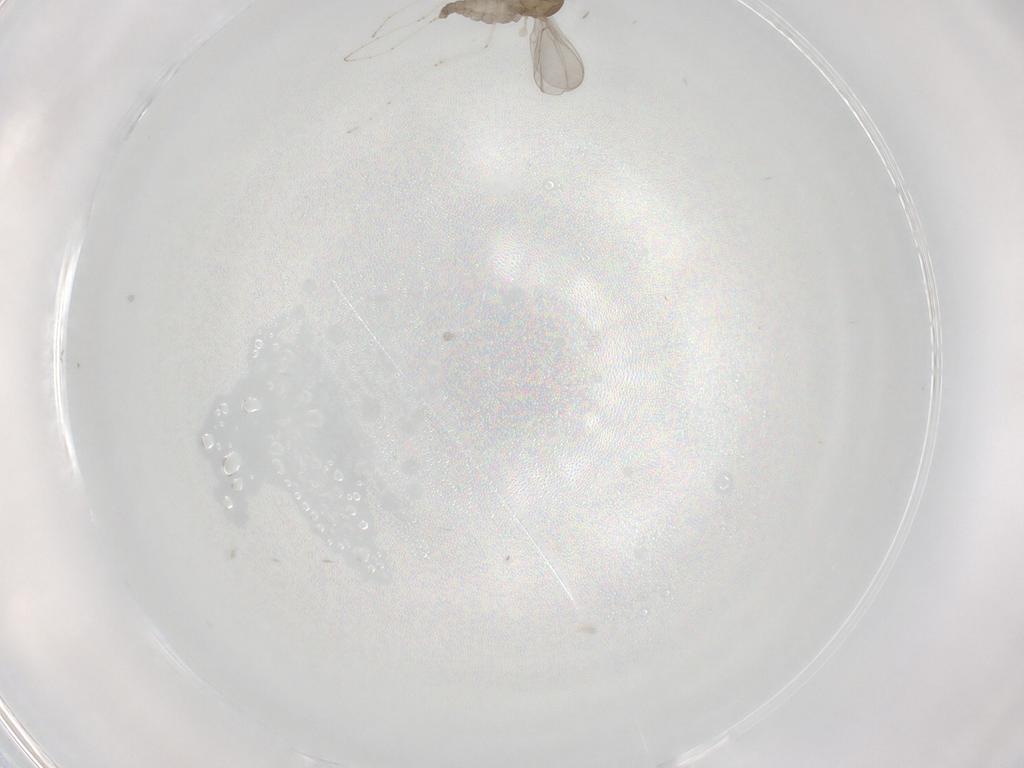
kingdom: Animalia
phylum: Arthropoda
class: Insecta
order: Diptera
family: Cecidomyiidae
